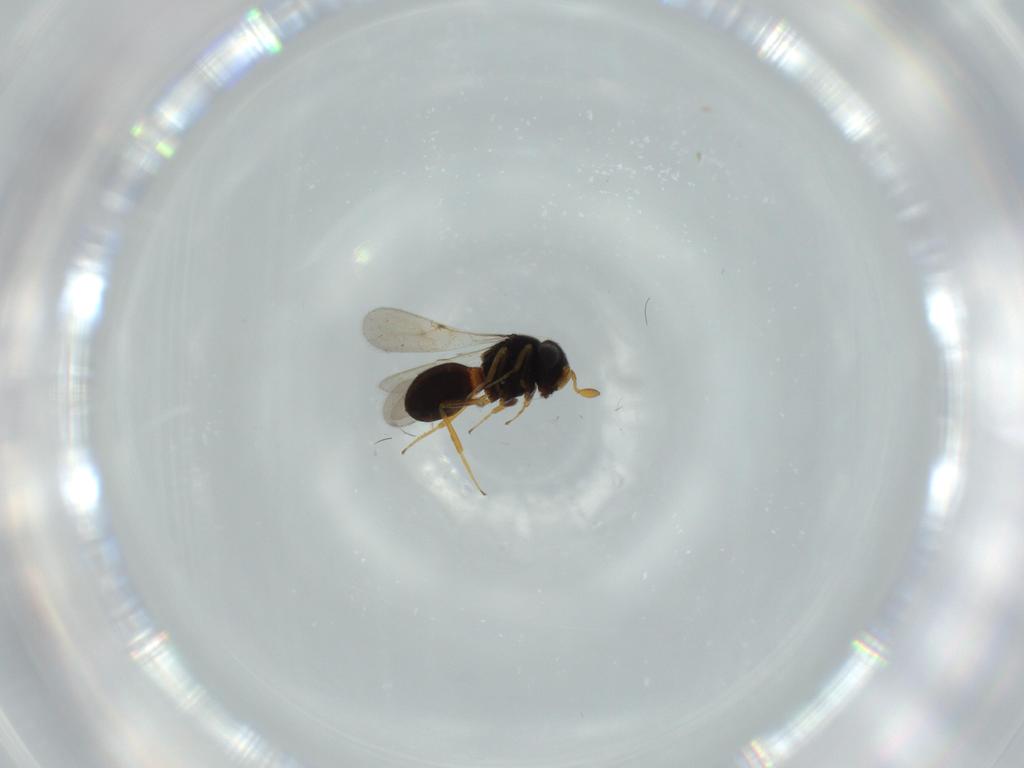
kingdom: Animalia
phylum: Arthropoda
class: Insecta
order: Hymenoptera
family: Scelionidae
